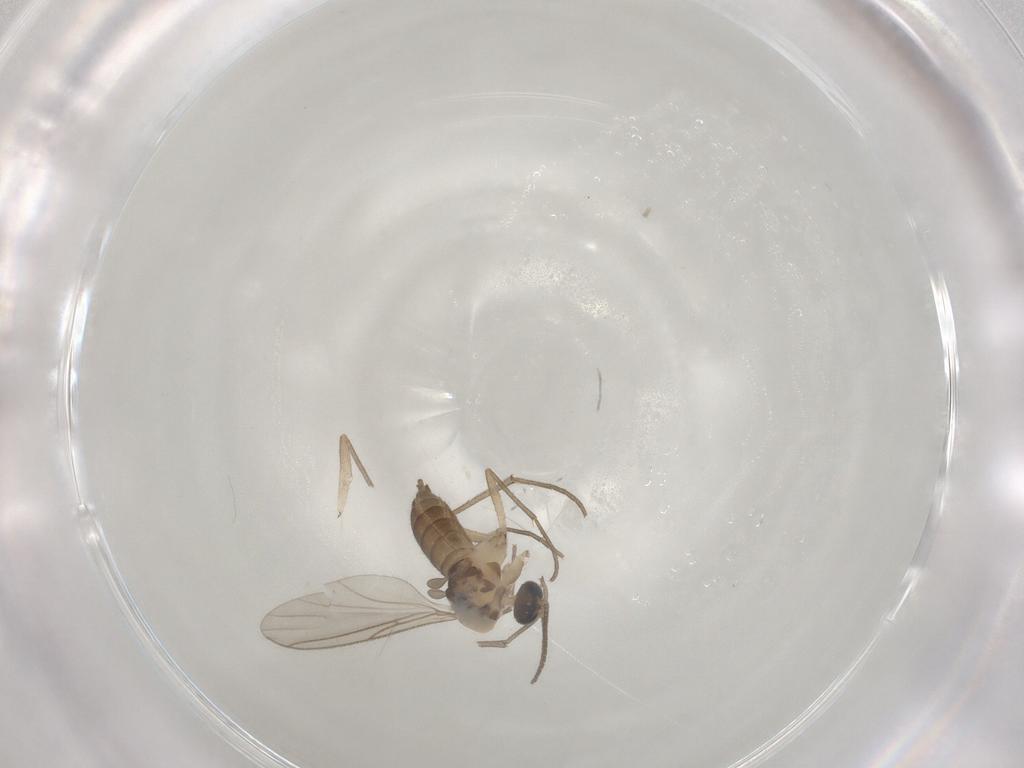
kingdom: Animalia
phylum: Arthropoda
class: Insecta
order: Diptera
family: Sciaridae
